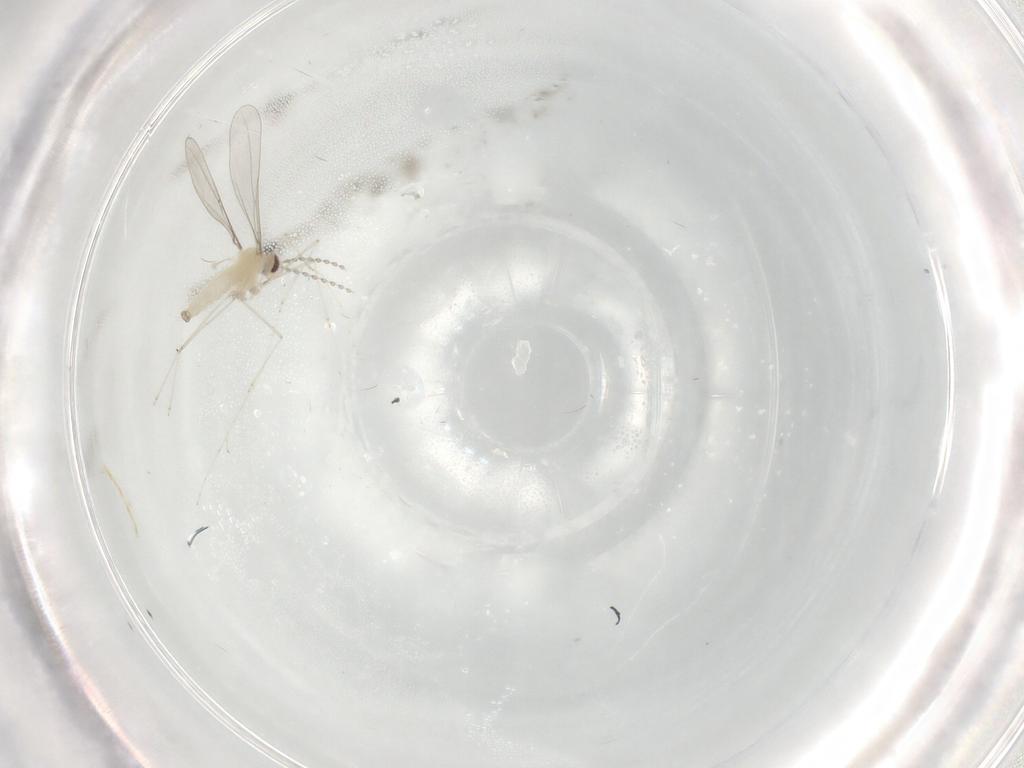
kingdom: Animalia
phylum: Arthropoda
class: Insecta
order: Diptera
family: Cecidomyiidae
